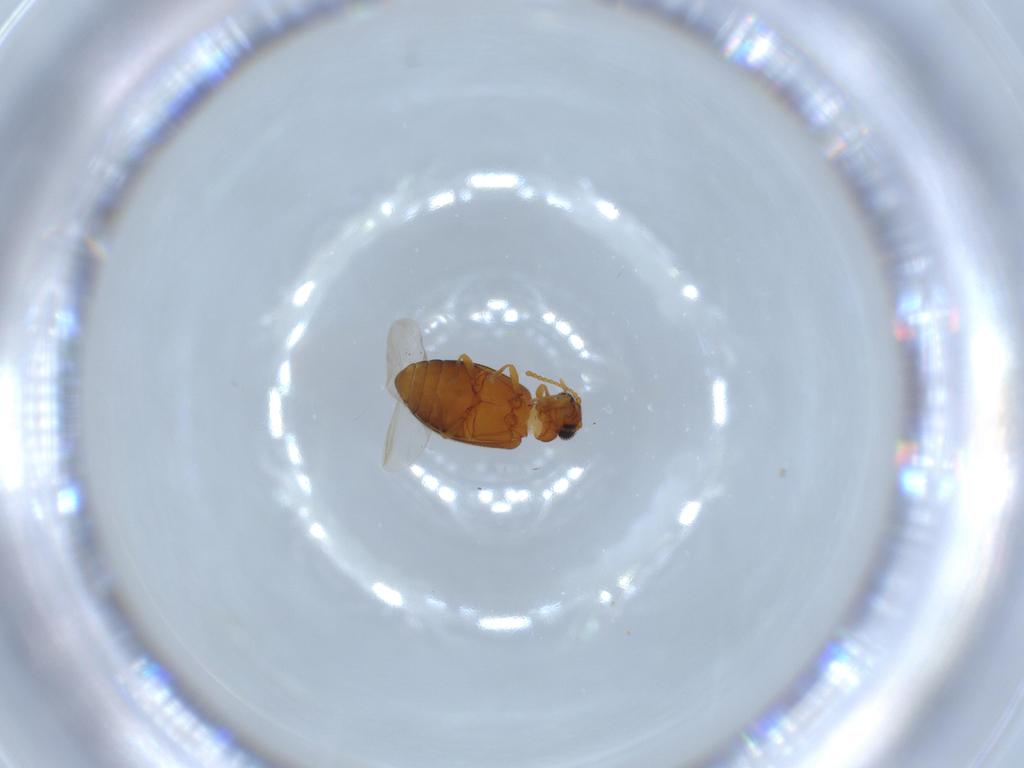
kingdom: Animalia
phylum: Arthropoda
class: Insecta
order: Coleoptera
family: Aderidae
